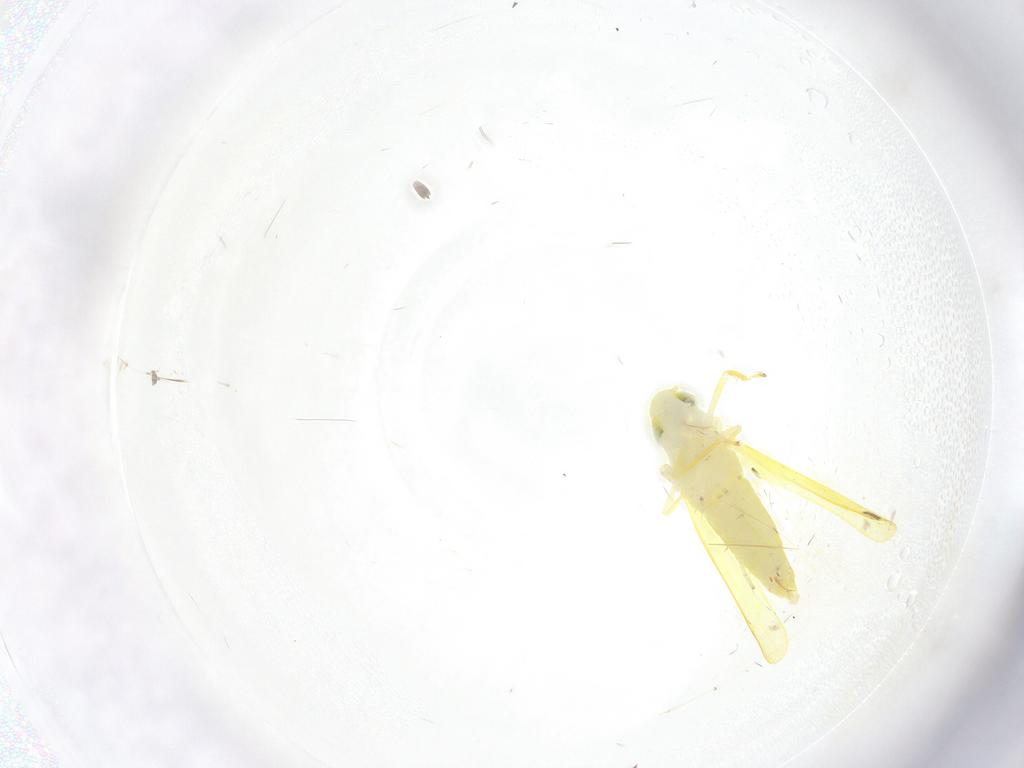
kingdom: Animalia
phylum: Arthropoda
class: Insecta
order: Hemiptera
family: Cicadellidae
